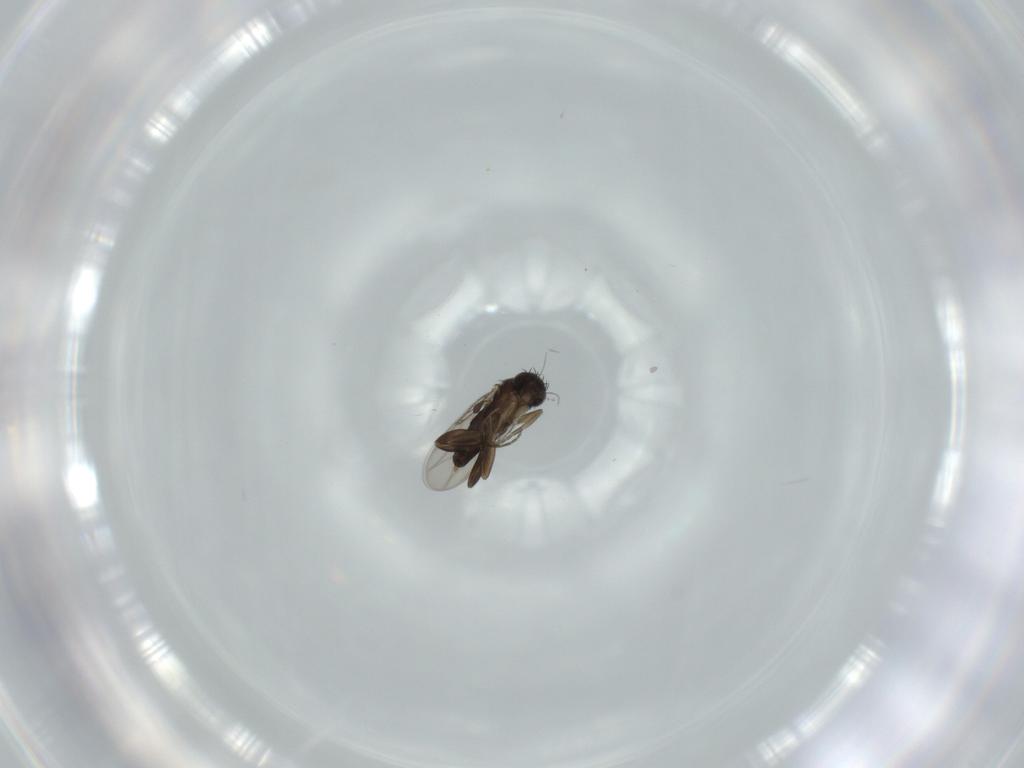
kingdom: Animalia
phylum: Arthropoda
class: Insecta
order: Diptera
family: Phoridae
